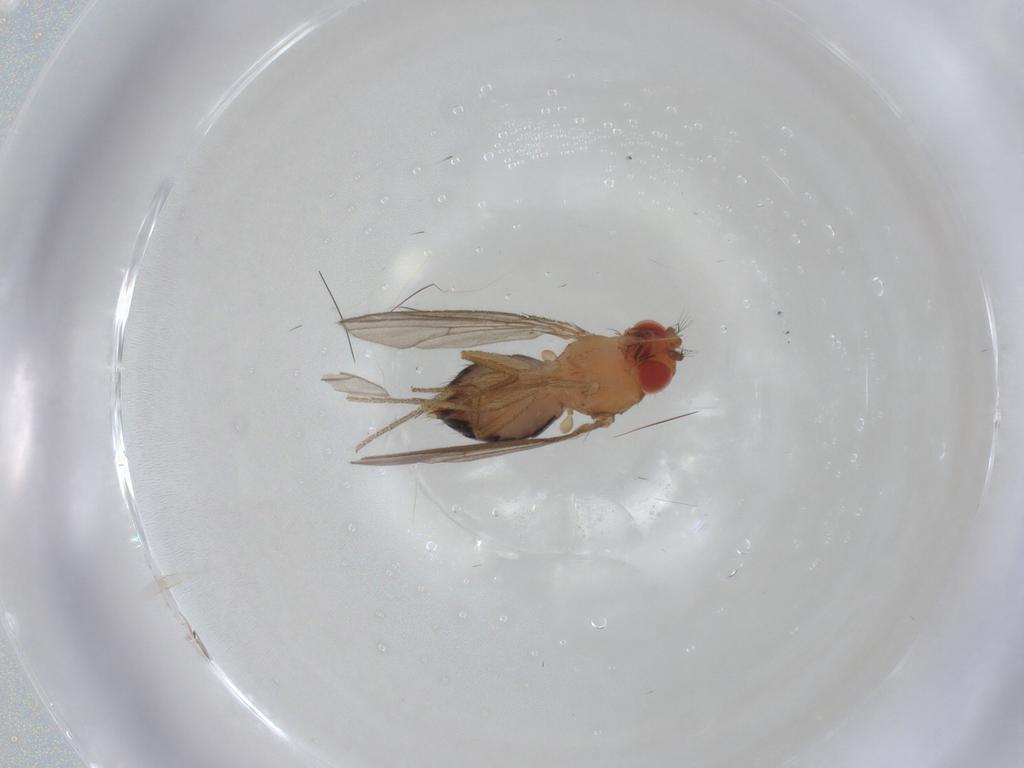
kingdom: Animalia
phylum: Arthropoda
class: Insecta
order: Diptera
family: Drosophilidae
